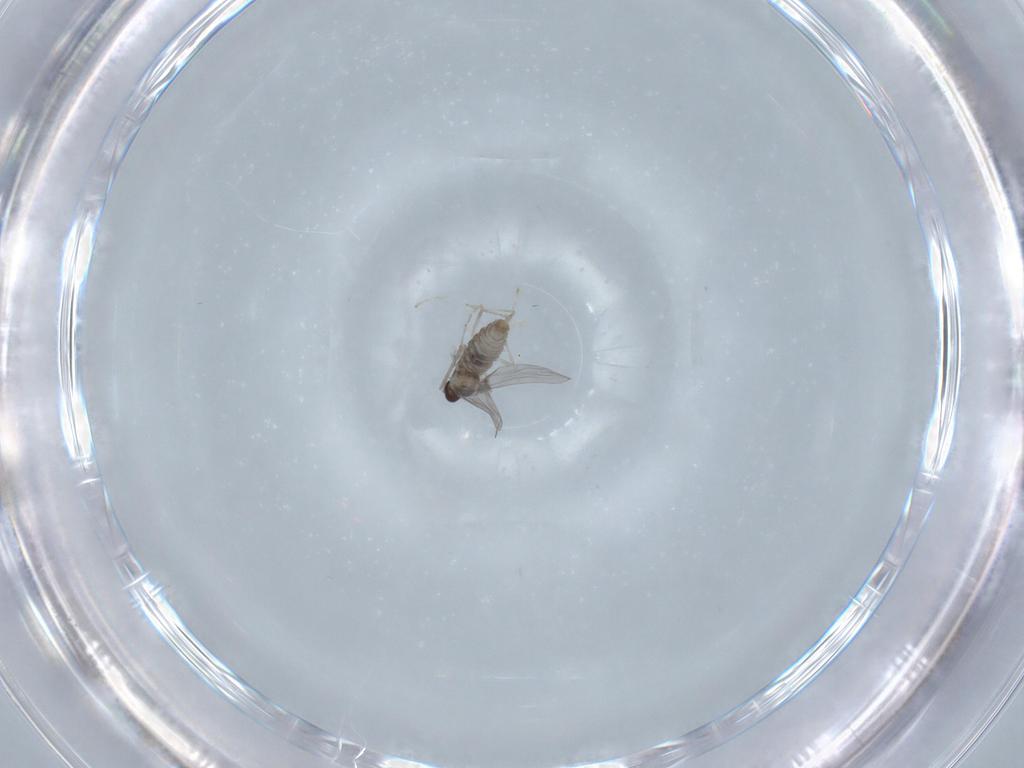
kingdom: Animalia
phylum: Arthropoda
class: Insecta
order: Diptera
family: Cecidomyiidae
